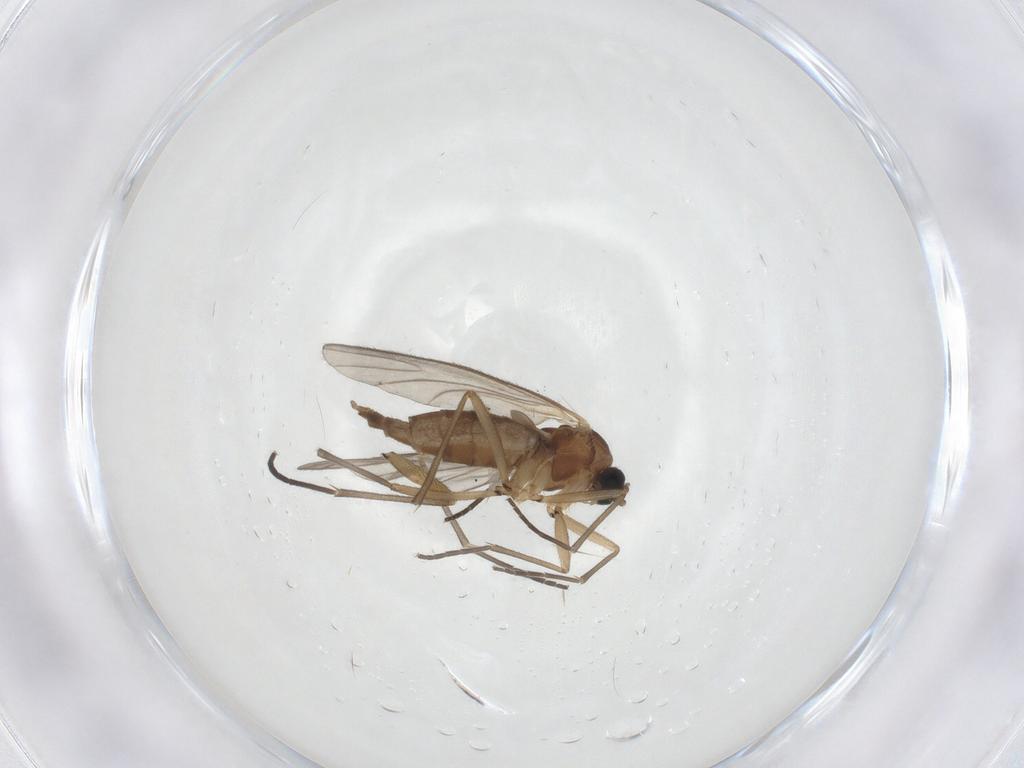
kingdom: Animalia
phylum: Arthropoda
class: Insecta
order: Diptera
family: Sciaridae
